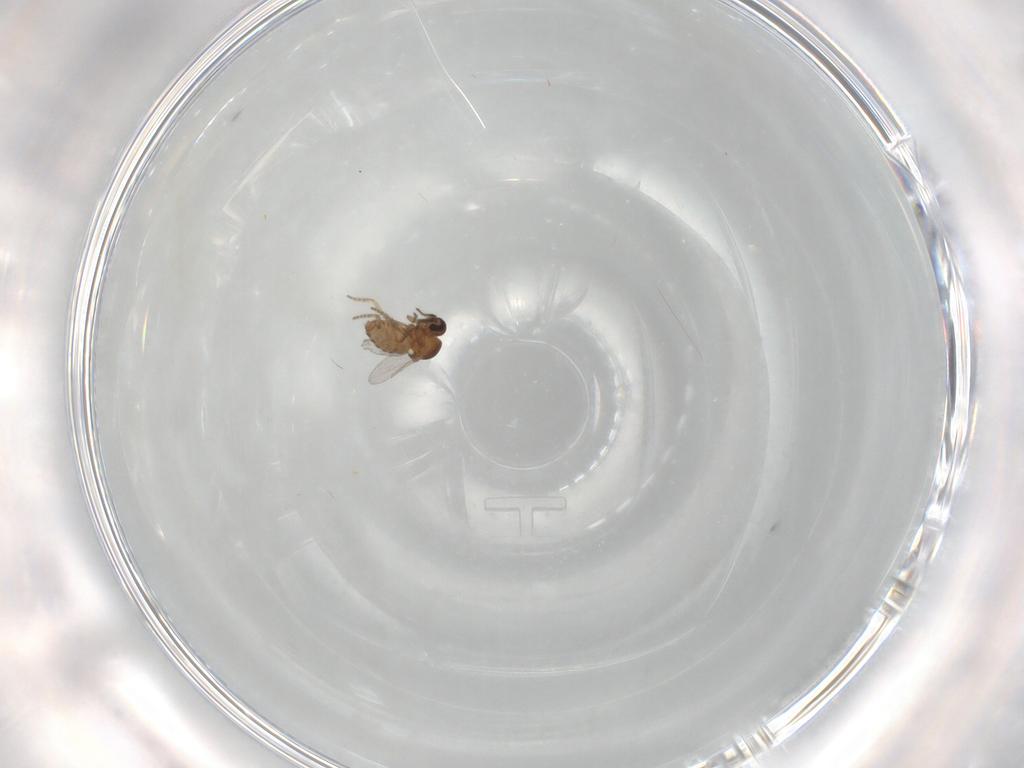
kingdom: Animalia
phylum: Arthropoda
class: Insecta
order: Diptera
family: Ceratopogonidae
